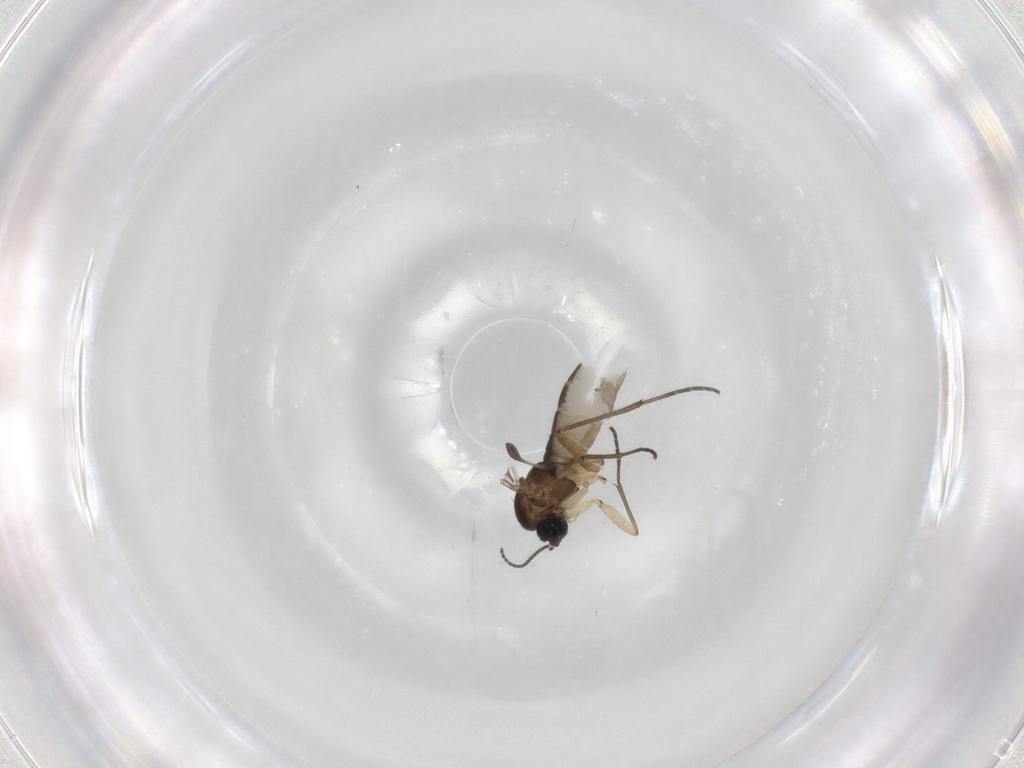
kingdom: Animalia
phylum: Arthropoda
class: Insecta
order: Diptera
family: Sciaridae
